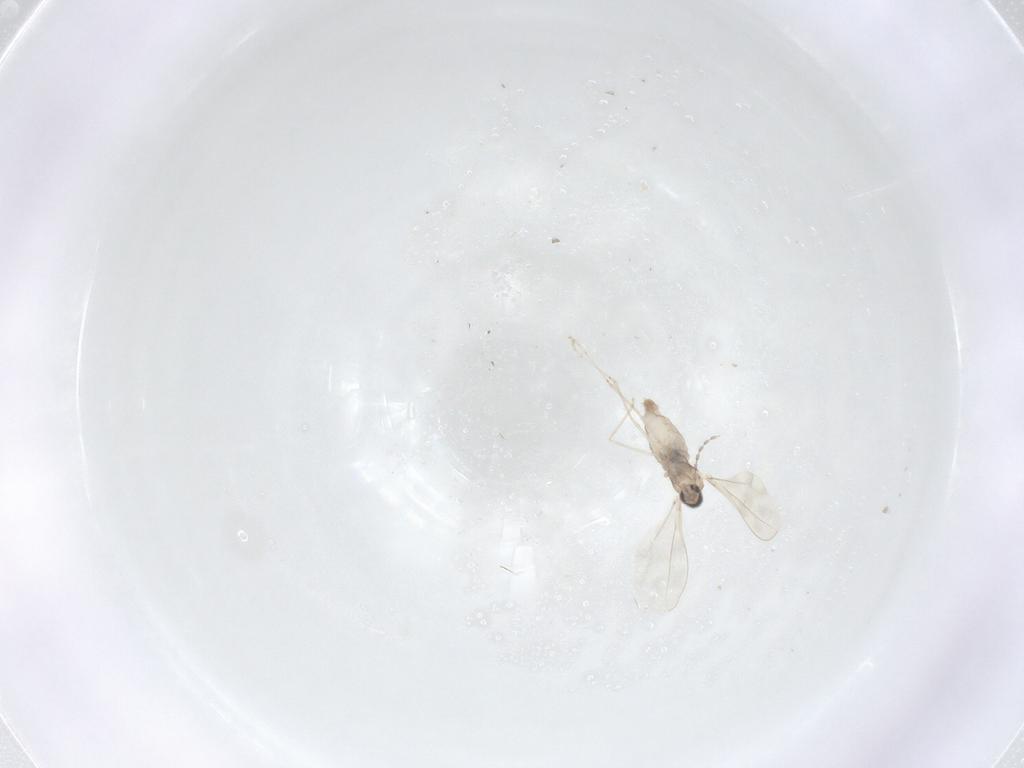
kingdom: Animalia
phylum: Arthropoda
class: Insecta
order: Diptera
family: Cecidomyiidae
